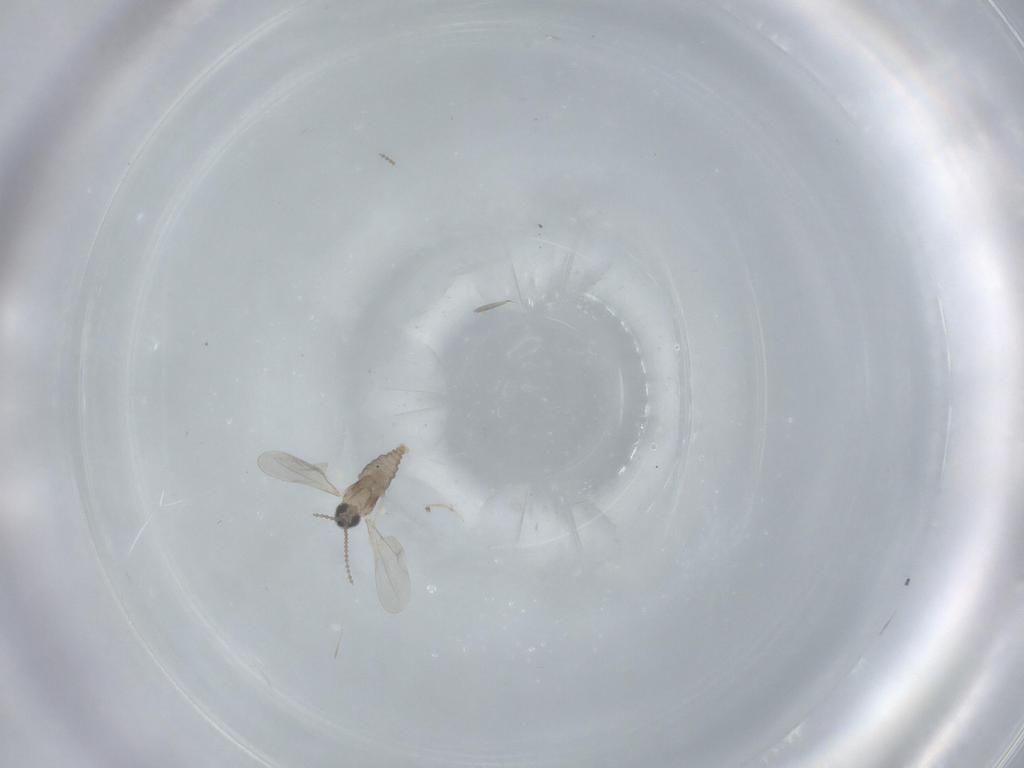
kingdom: Animalia
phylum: Arthropoda
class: Insecta
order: Diptera
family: Cecidomyiidae
